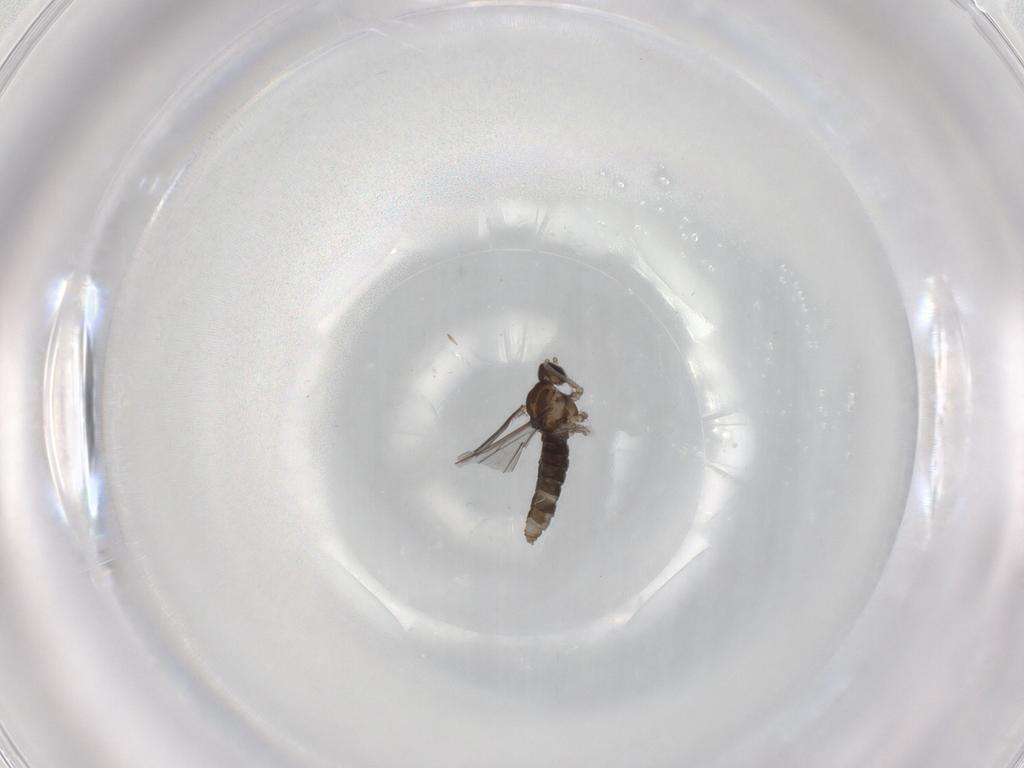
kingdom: Animalia
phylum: Arthropoda
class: Insecta
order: Diptera
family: Cecidomyiidae
